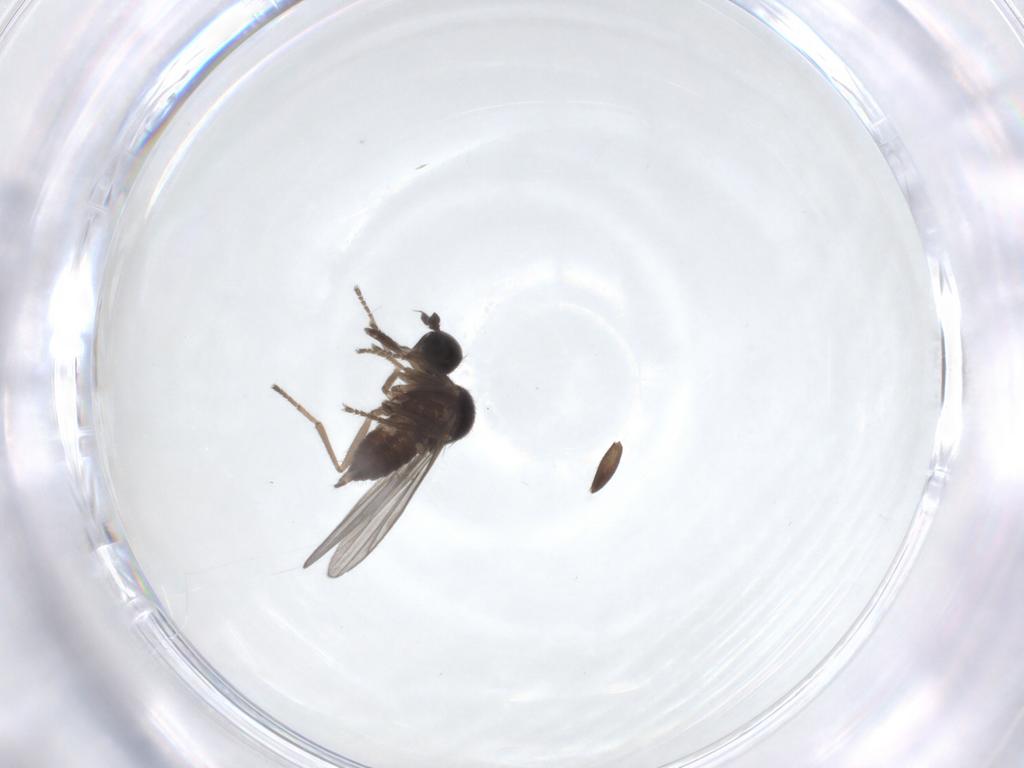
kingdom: Animalia
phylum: Arthropoda
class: Insecta
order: Diptera
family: Hybotidae
